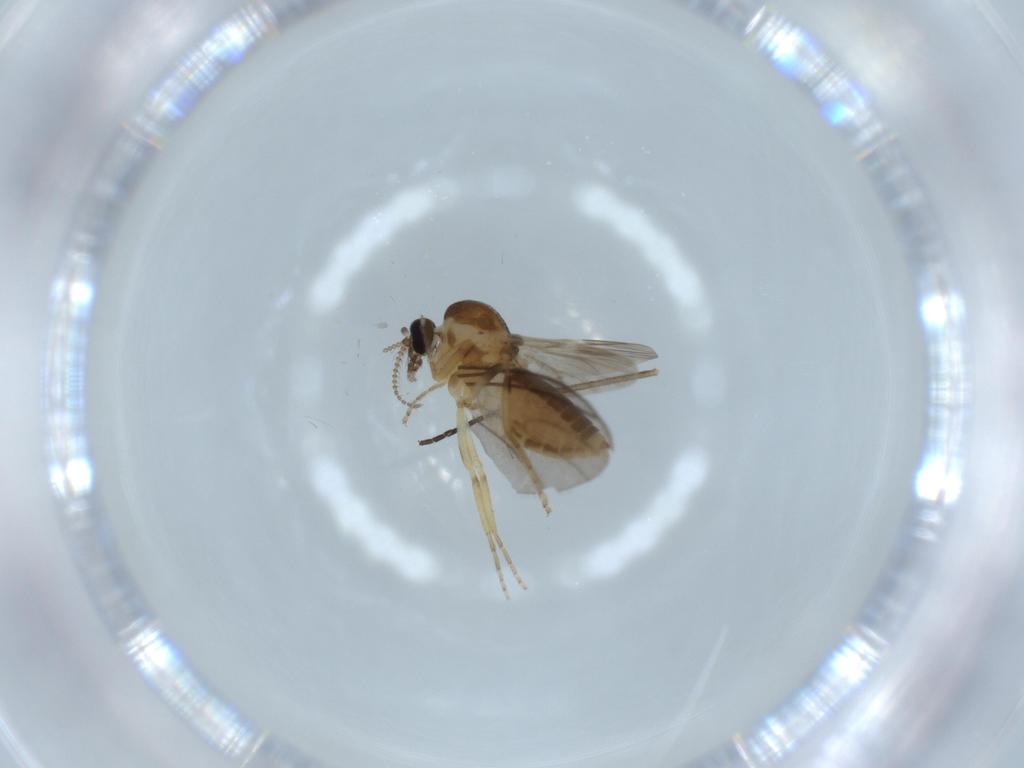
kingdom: Animalia
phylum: Arthropoda
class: Insecta
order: Diptera
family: Ceratopogonidae
